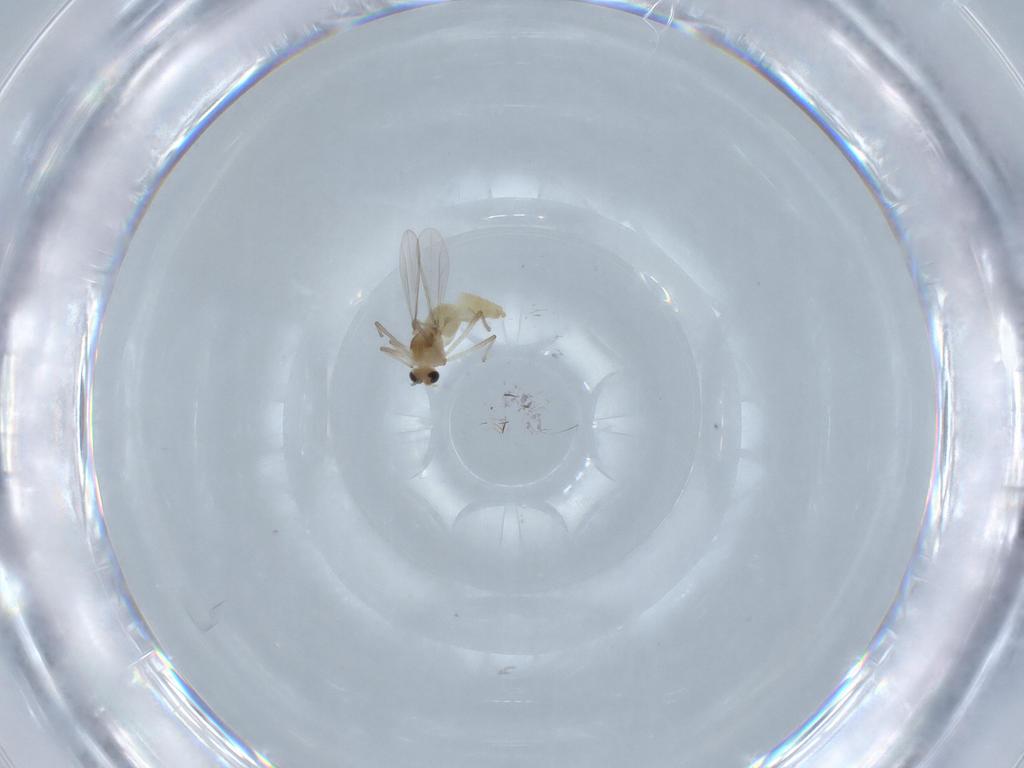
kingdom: Animalia
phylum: Arthropoda
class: Insecta
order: Diptera
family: Chironomidae
